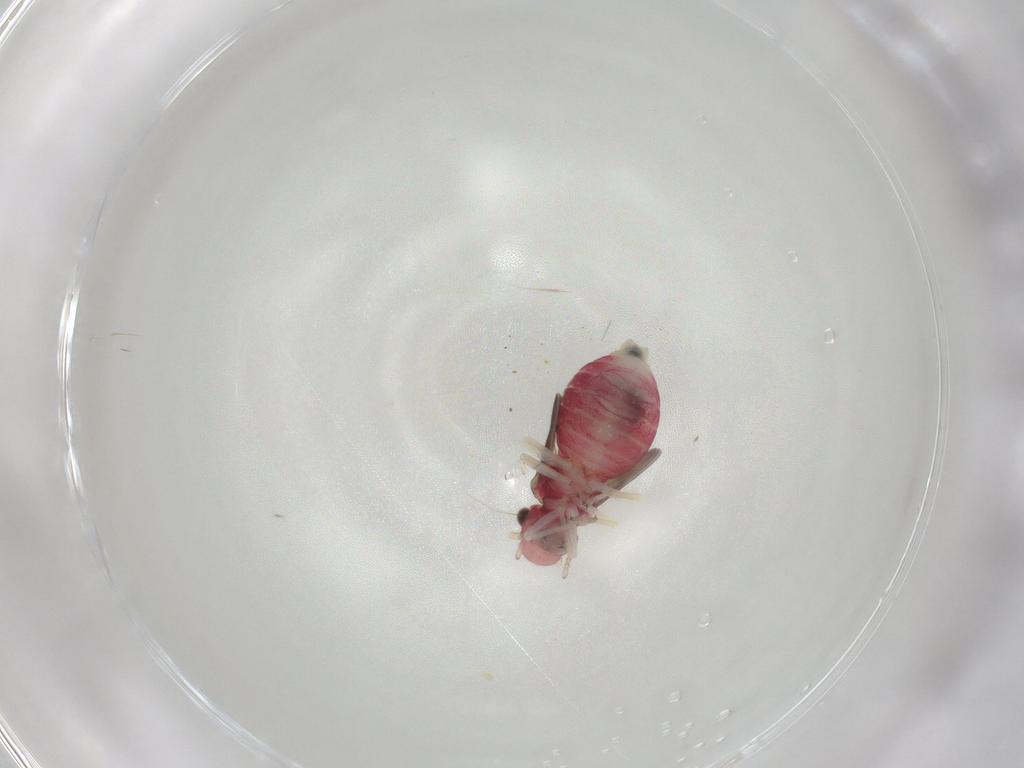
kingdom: Animalia
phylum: Arthropoda
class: Insecta
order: Psocodea
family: Caeciliusidae
